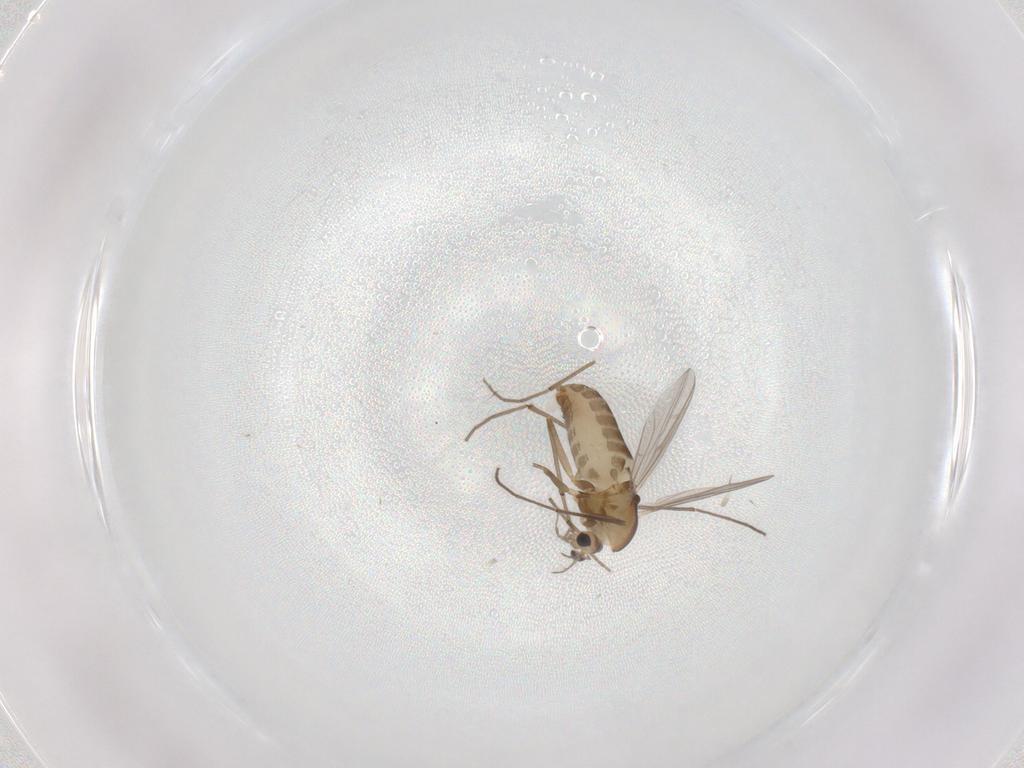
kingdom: Animalia
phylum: Arthropoda
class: Insecta
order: Diptera
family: Chironomidae
